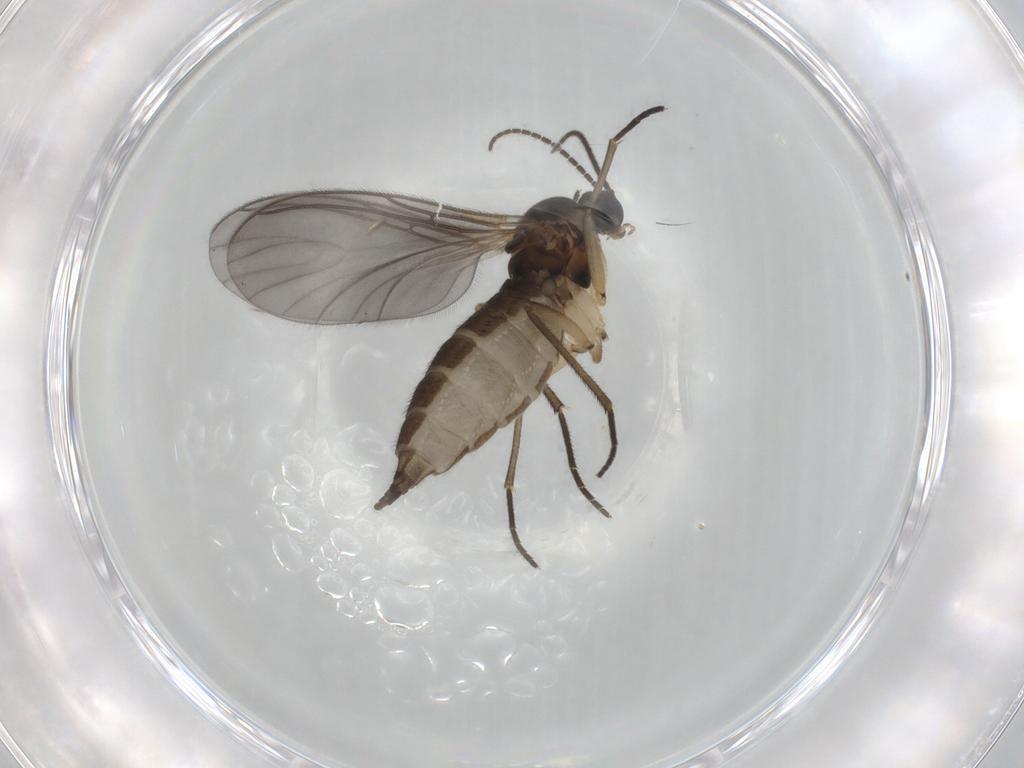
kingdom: Animalia
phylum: Arthropoda
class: Insecta
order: Diptera
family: Sciaridae
